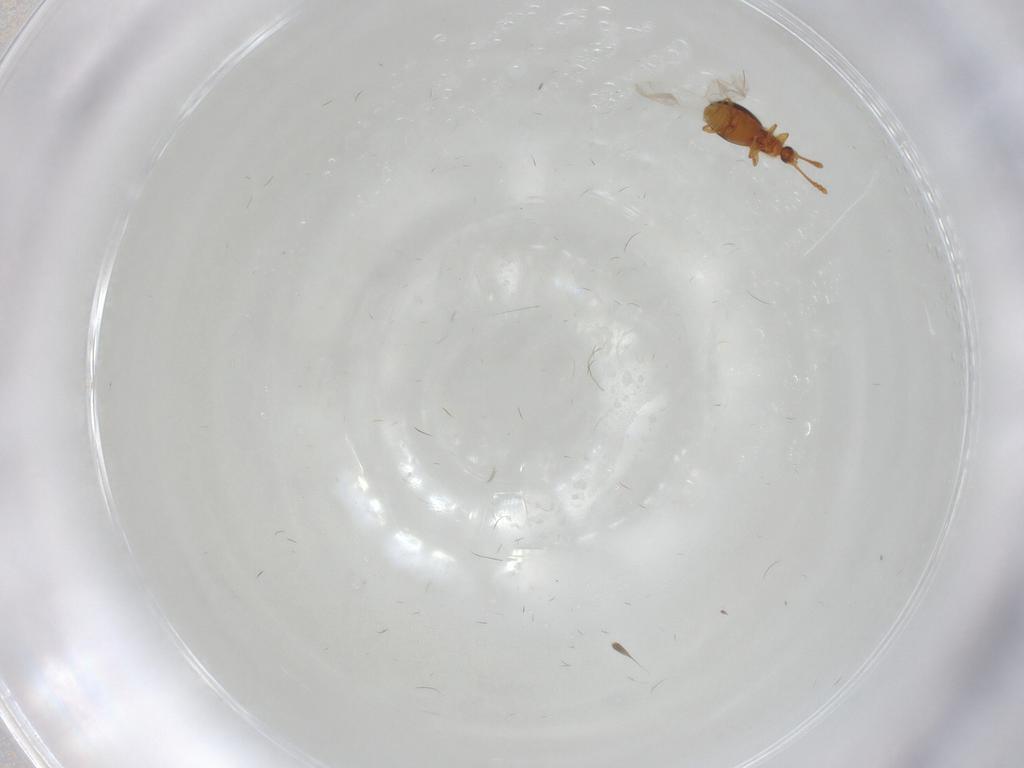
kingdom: Animalia
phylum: Arthropoda
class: Insecta
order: Coleoptera
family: Staphylinidae
